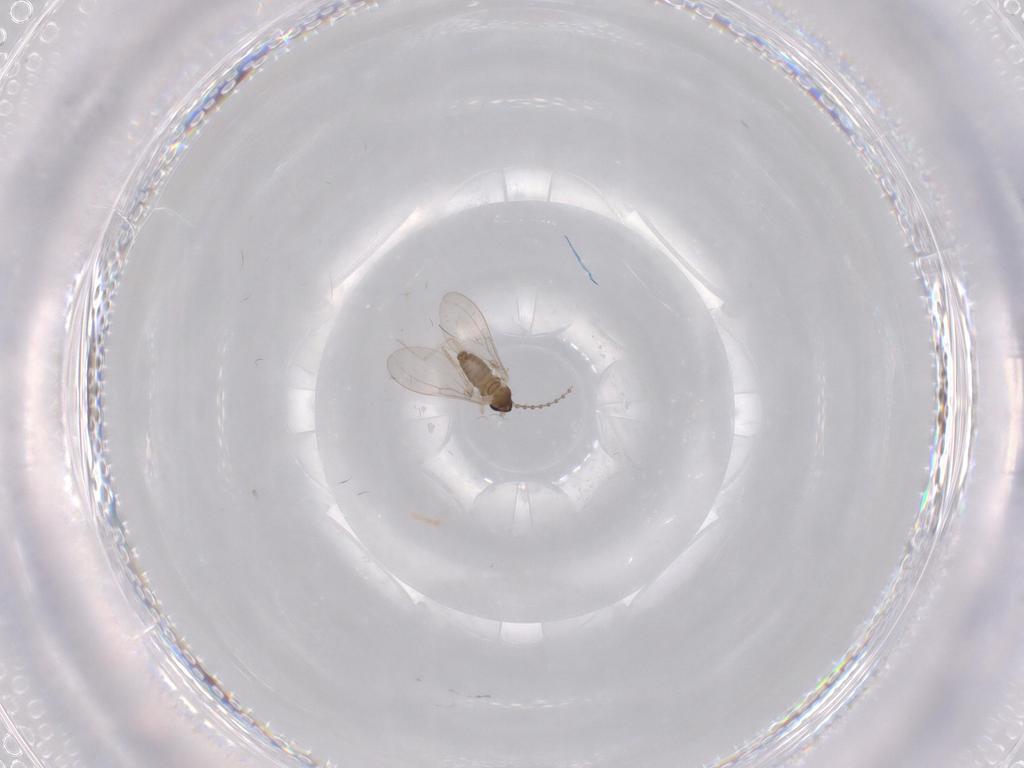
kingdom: Animalia
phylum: Arthropoda
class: Insecta
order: Diptera
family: Cecidomyiidae
